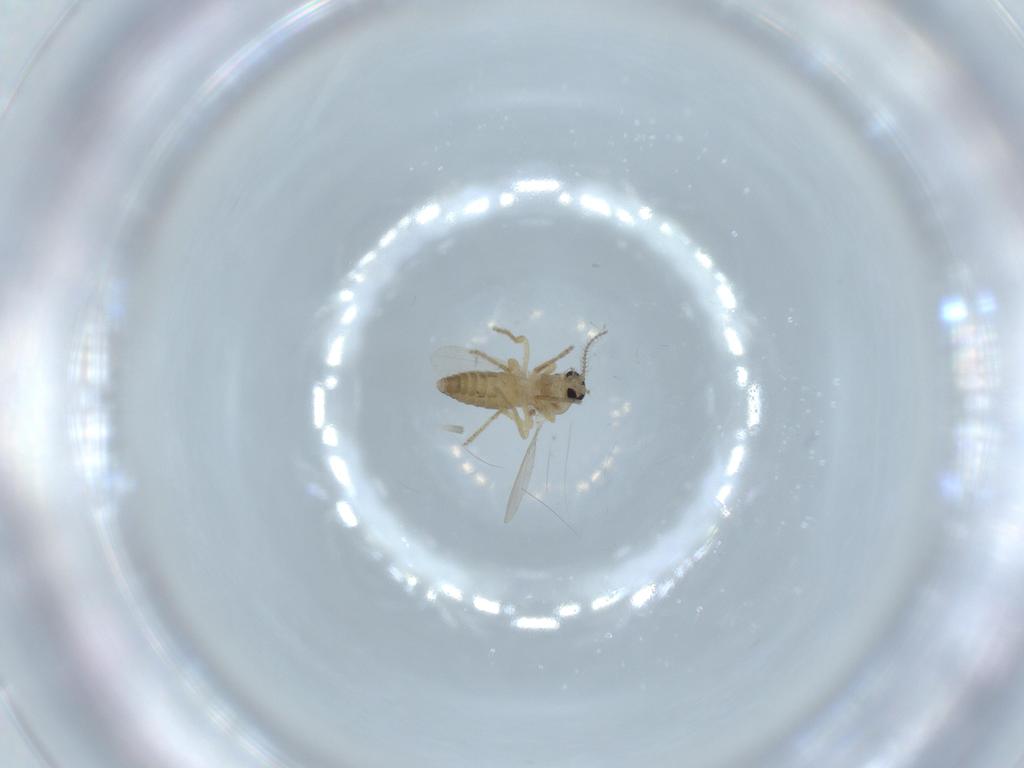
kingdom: Animalia
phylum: Arthropoda
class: Insecta
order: Diptera
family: Ceratopogonidae
